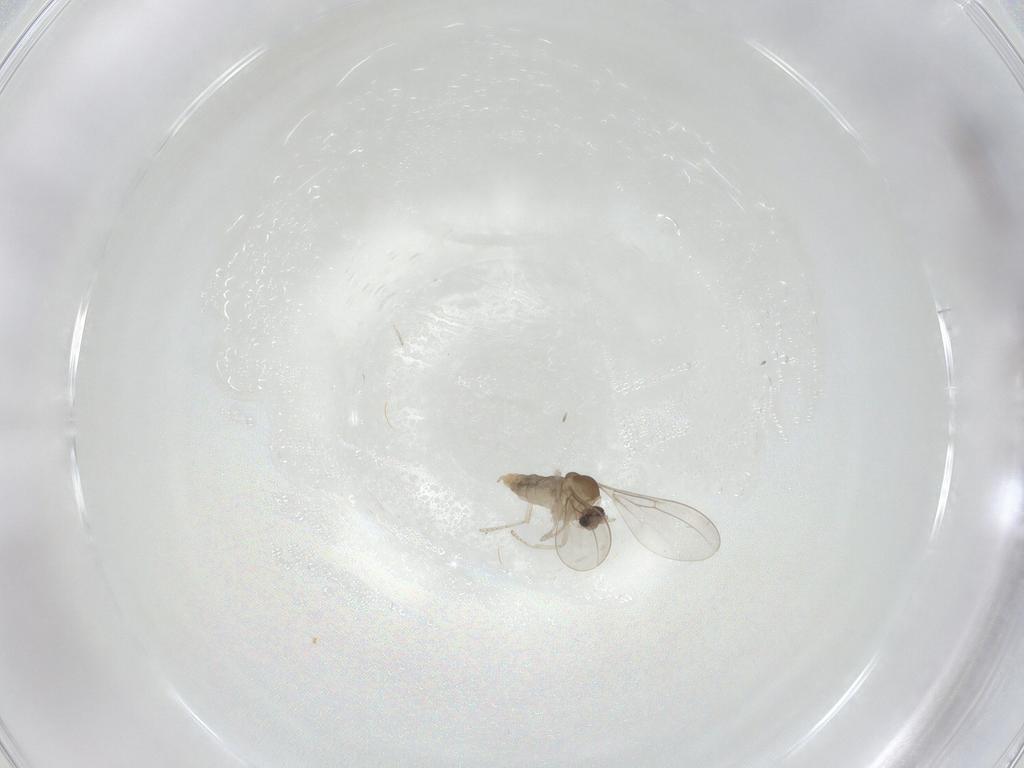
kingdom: Animalia
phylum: Arthropoda
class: Insecta
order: Diptera
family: Cecidomyiidae
